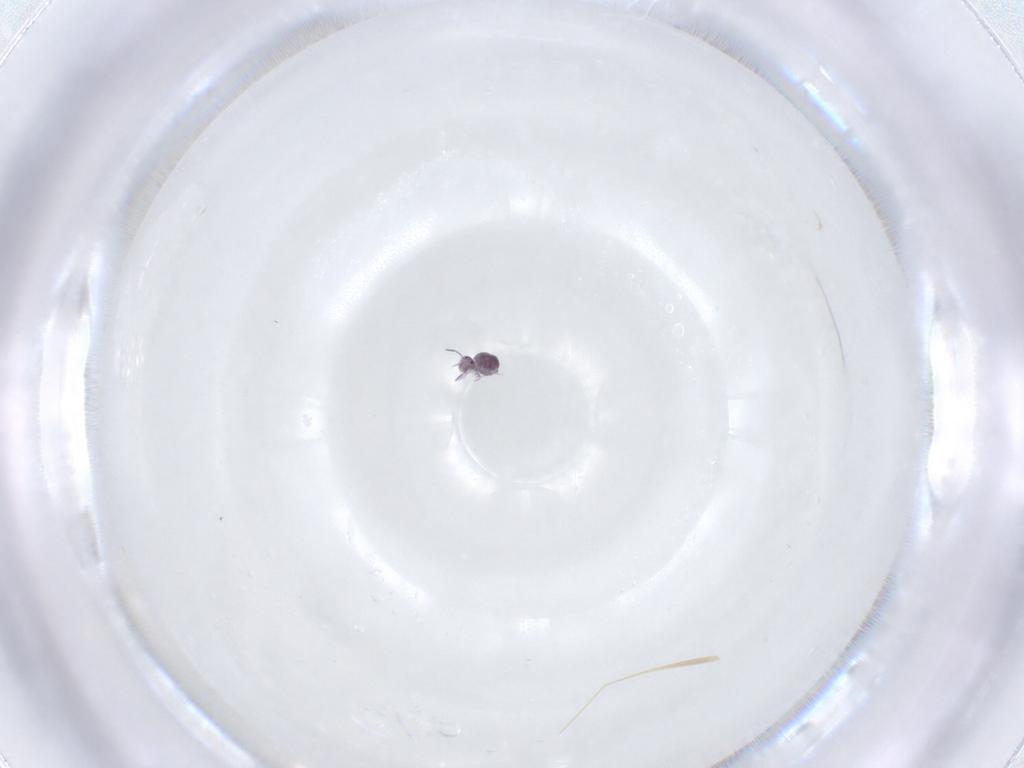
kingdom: Animalia
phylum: Arthropoda
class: Collembola
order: Symphypleona
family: Sminthurididae
